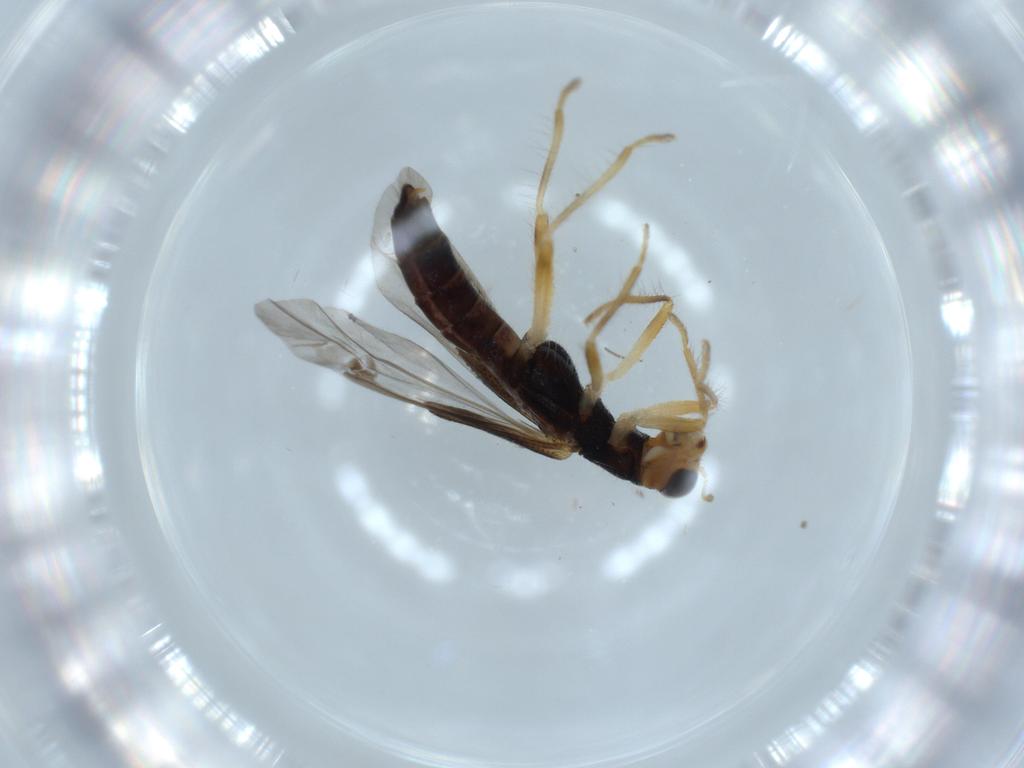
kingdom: Animalia
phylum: Arthropoda
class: Insecta
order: Coleoptera
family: Cleridae
